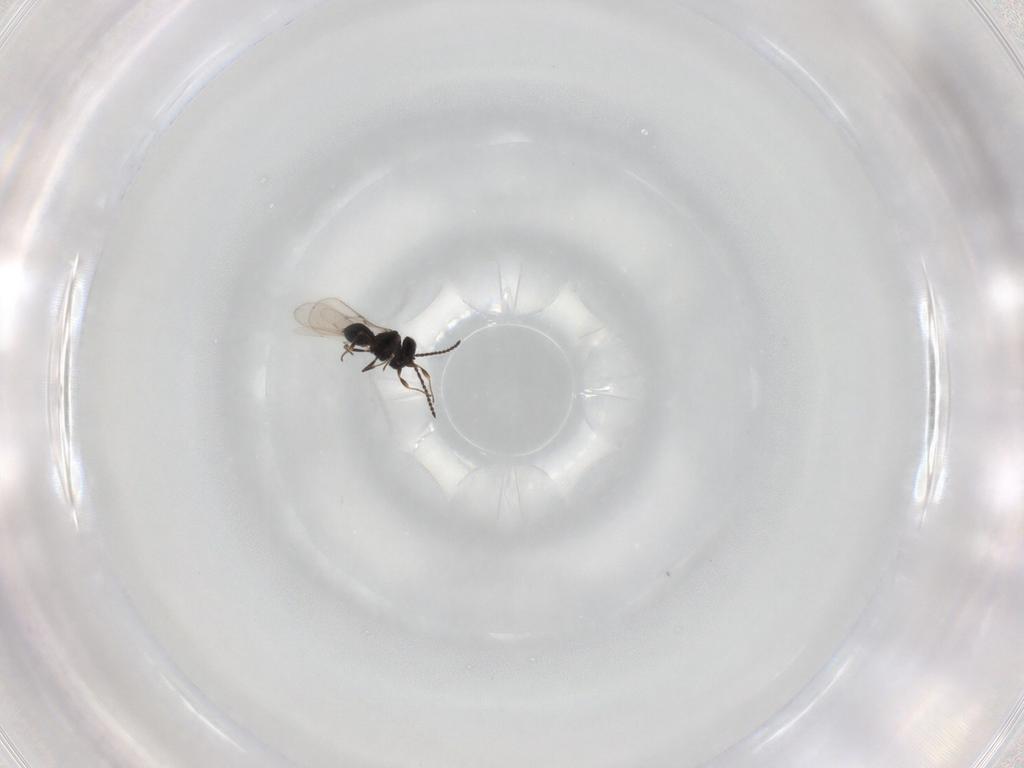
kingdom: Animalia
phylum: Arthropoda
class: Insecta
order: Hymenoptera
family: Scelionidae
